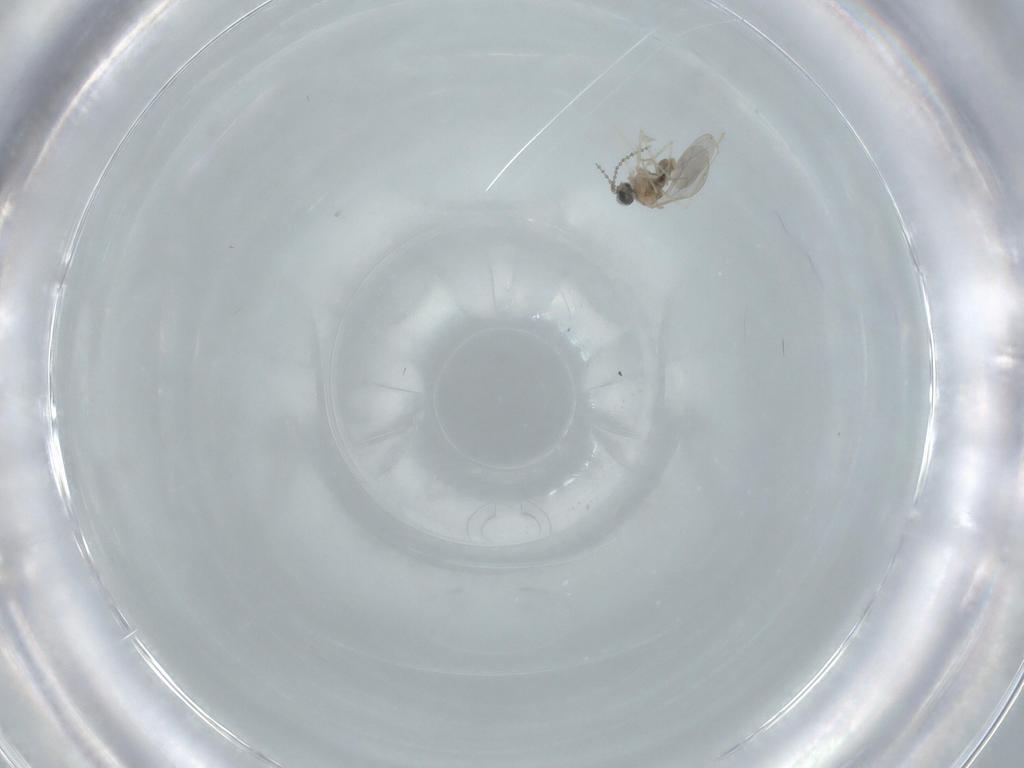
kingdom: Animalia
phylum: Arthropoda
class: Insecta
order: Diptera
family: Cecidomyiidae
